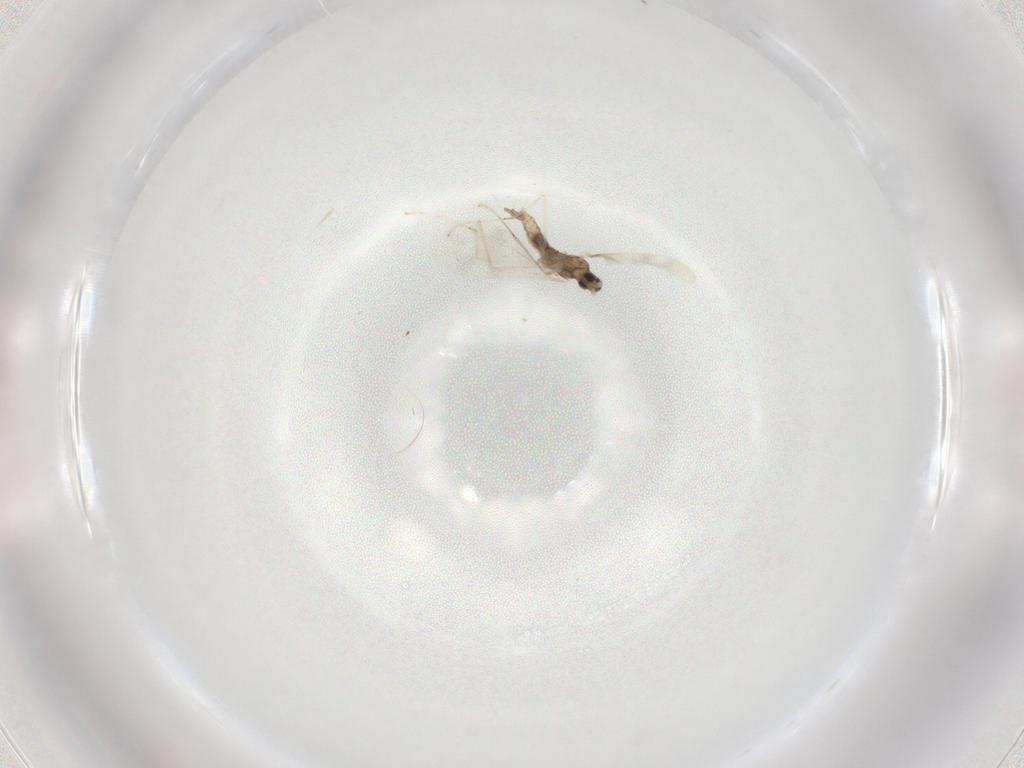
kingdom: Animalia
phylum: Arthropoda
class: Insecta
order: Diptera
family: Cecidomyiidae
